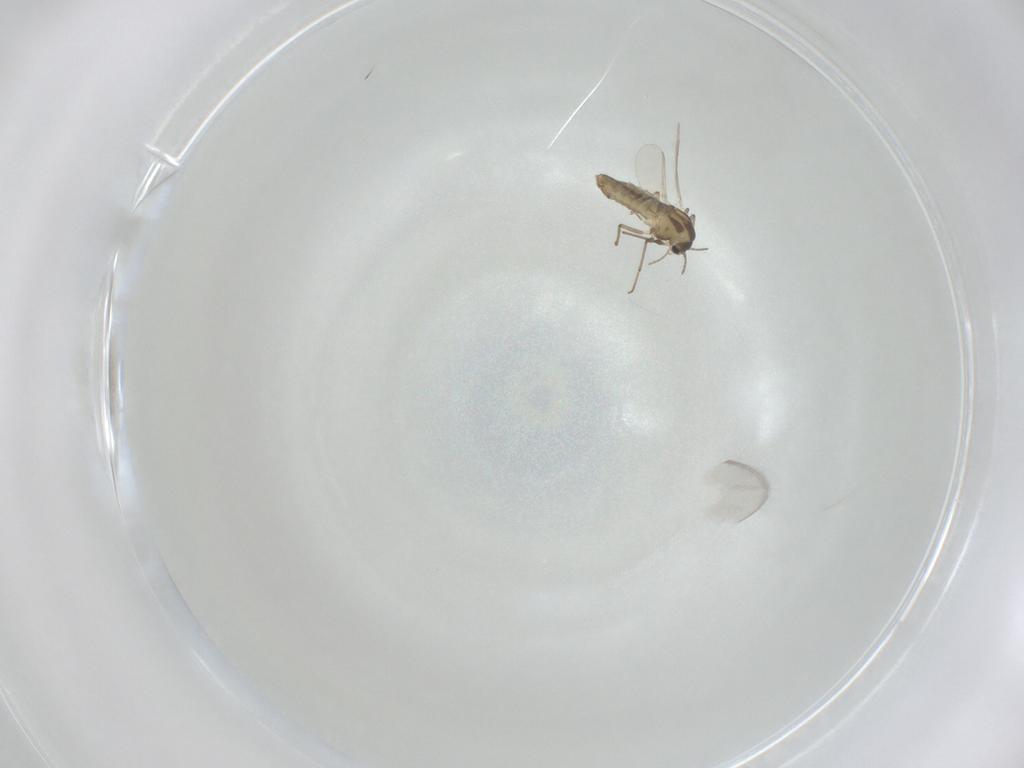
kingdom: Animalia
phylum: Arthropoda
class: Insecta
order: Diptera
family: Chironomidae
